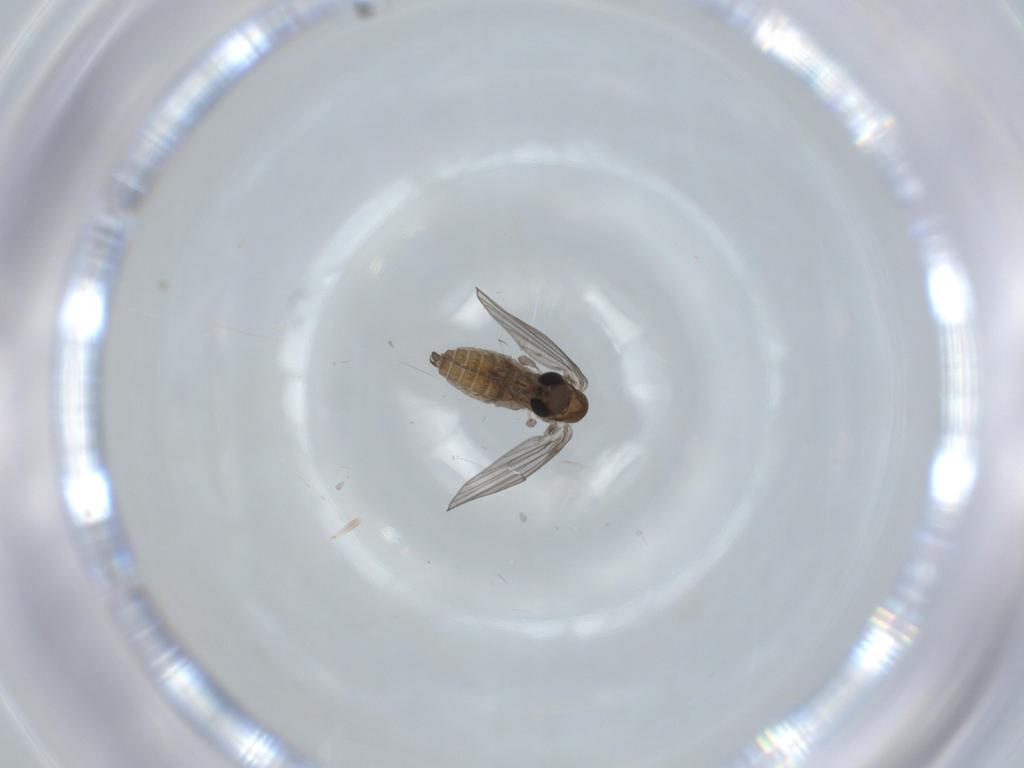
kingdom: Animalia
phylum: Arthropoda
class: Insecta
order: Diptera
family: Psychodidae
